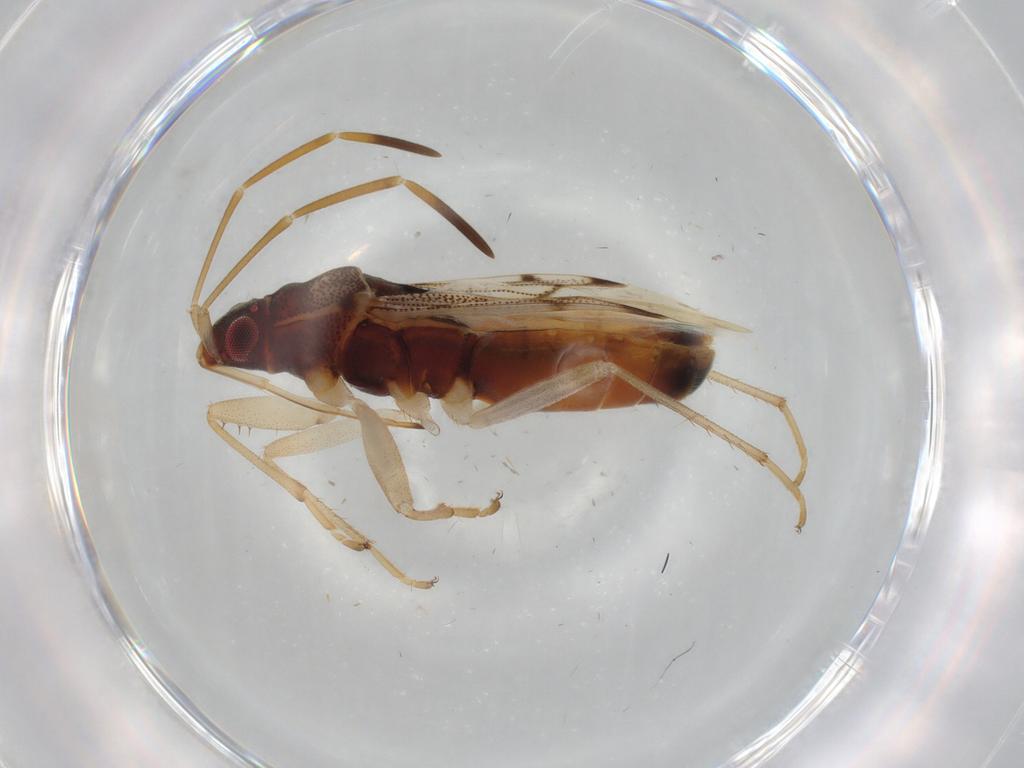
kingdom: Animalia
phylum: Arthropoda
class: Insecta
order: Hemiptera
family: Rhyparochromidae
